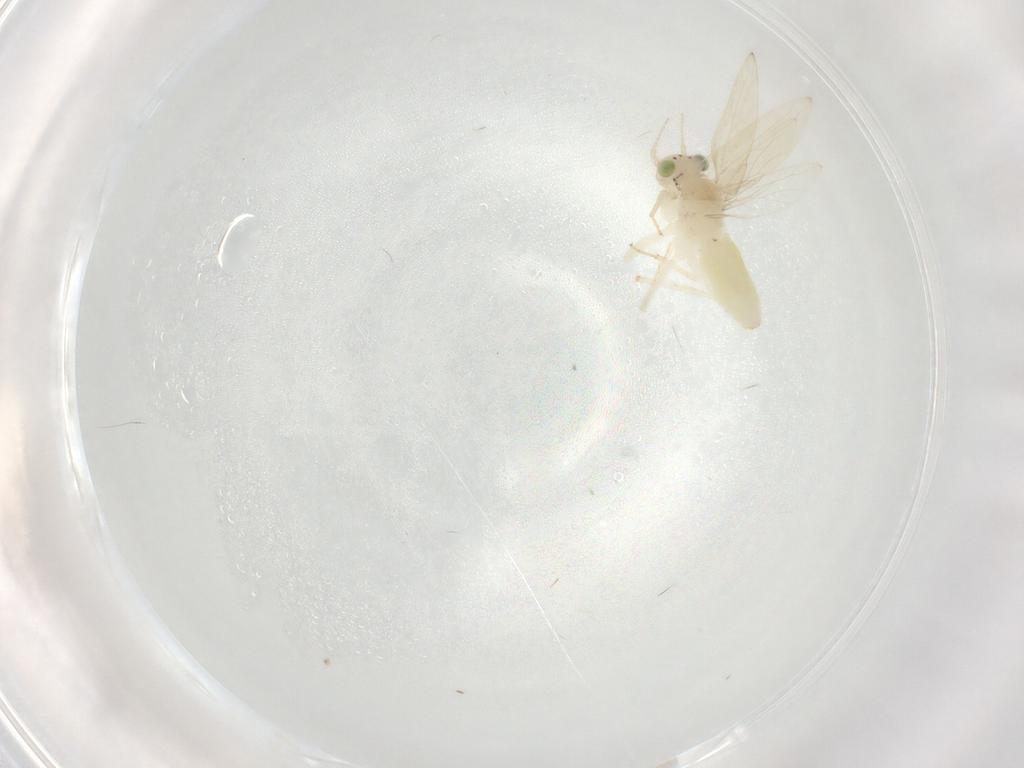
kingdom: Animalia
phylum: Arthropoda
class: Insecta
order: Psocodea
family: Lepidopsocidae
